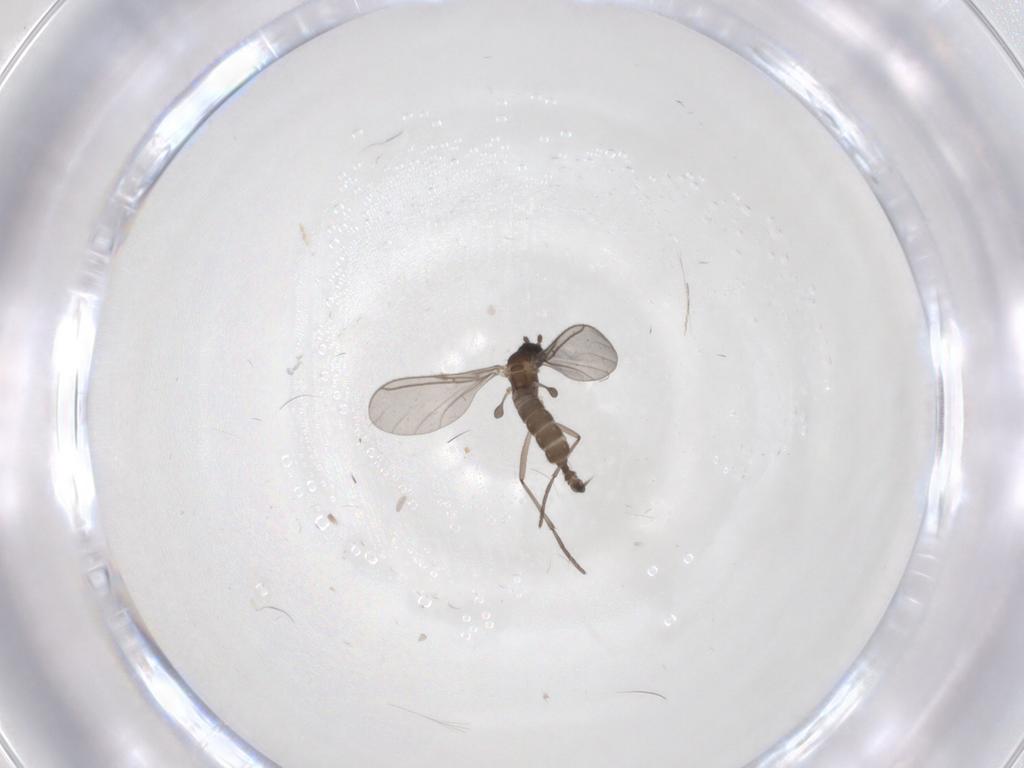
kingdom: Animalia
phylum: Arthropoda
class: Insecta
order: Diptera
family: Sciaridae
